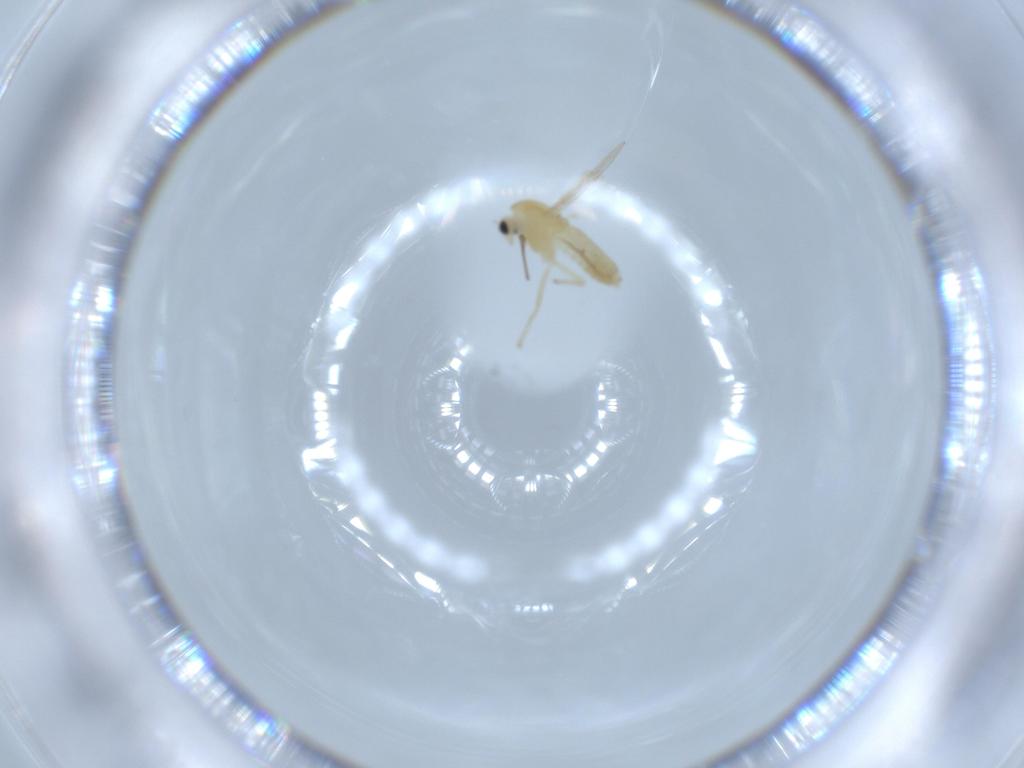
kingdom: Animalia
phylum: Arthropoda
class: Insecta
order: Diptera
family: Chironomidae
